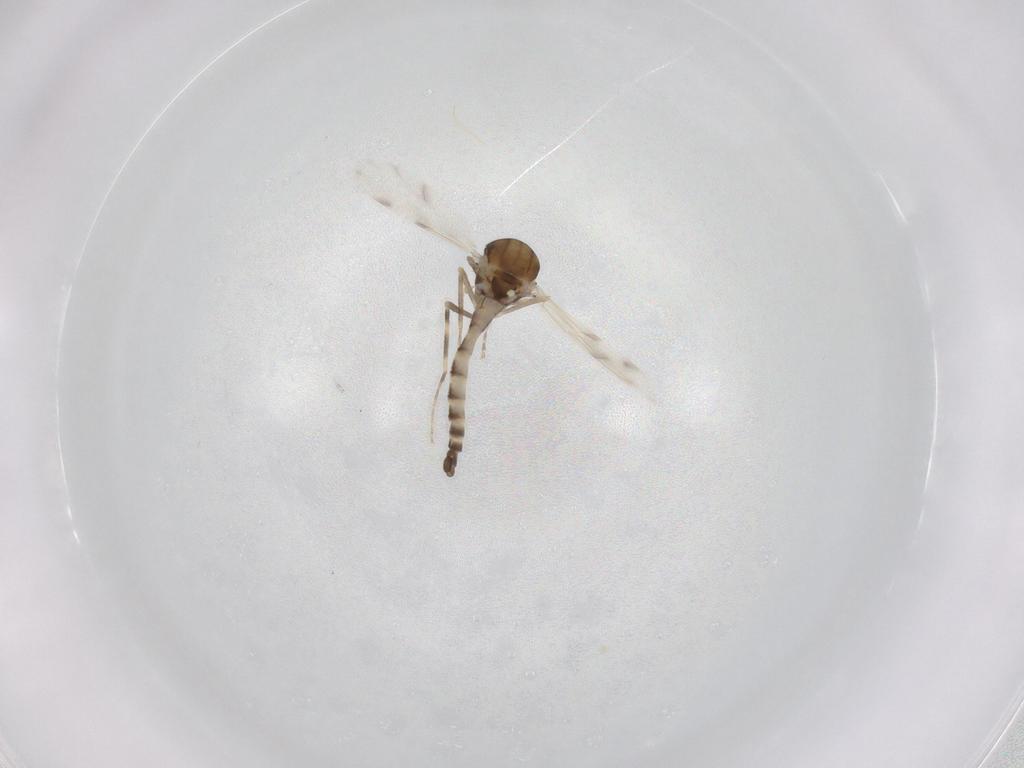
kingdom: Animalia
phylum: Arthropoda
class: Insecta
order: Diptera
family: Ceratopogonidae
